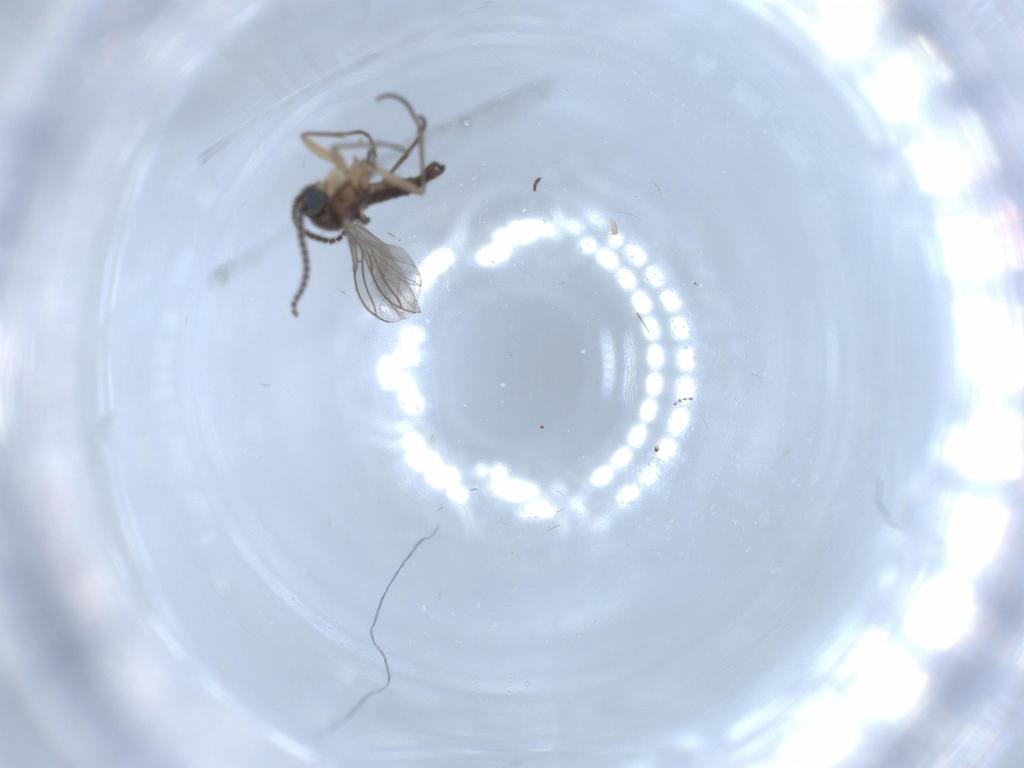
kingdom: Animalia
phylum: Arthropoda
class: Insecta
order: Diptera
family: Sciaridae
